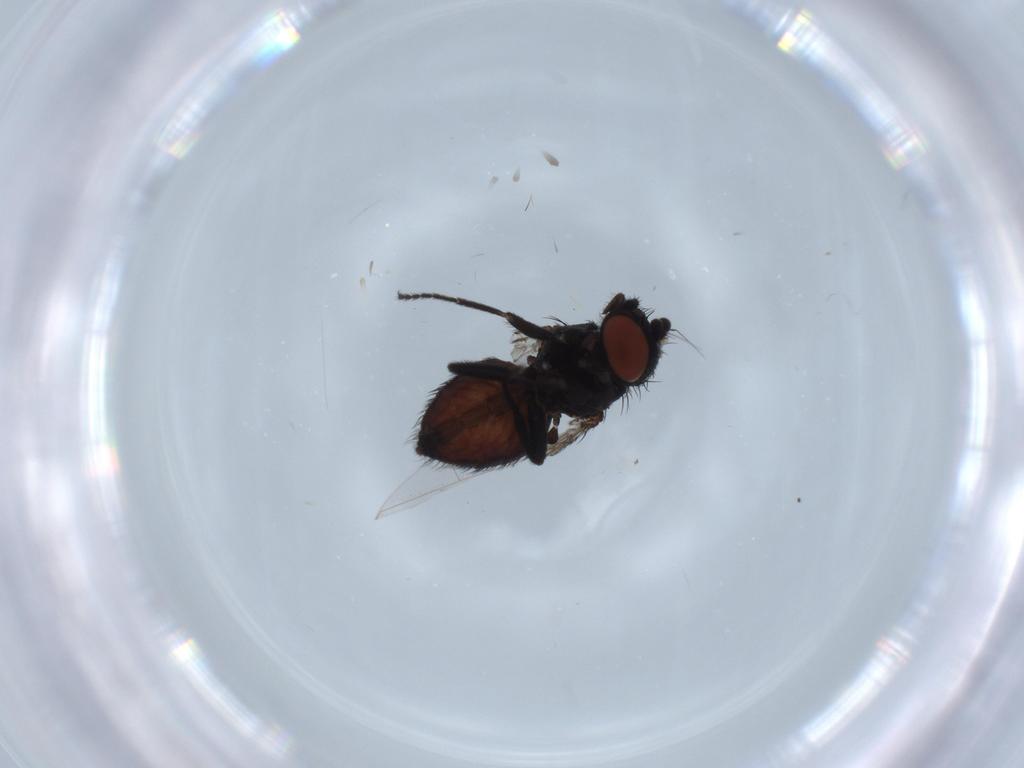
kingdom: Animalia
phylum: Arthropoda
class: Insecta
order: Diptera
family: Milichiidae
